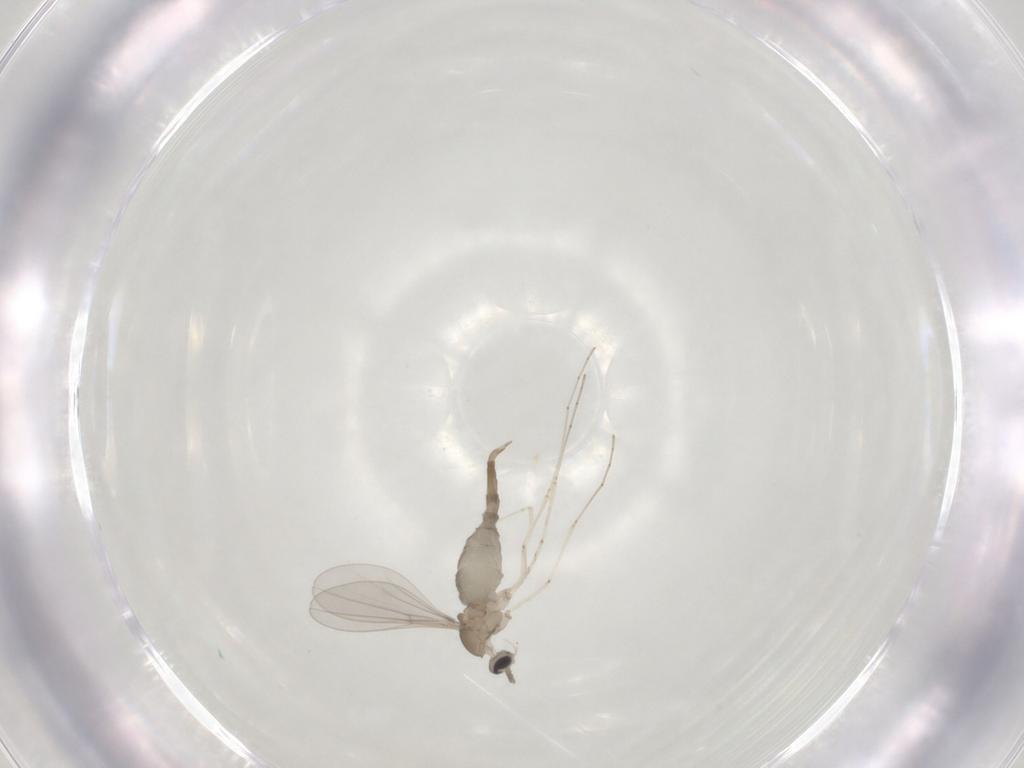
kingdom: Animalia
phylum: Arthropoda
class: Insecta
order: Diptera
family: Cecidomyiidae
